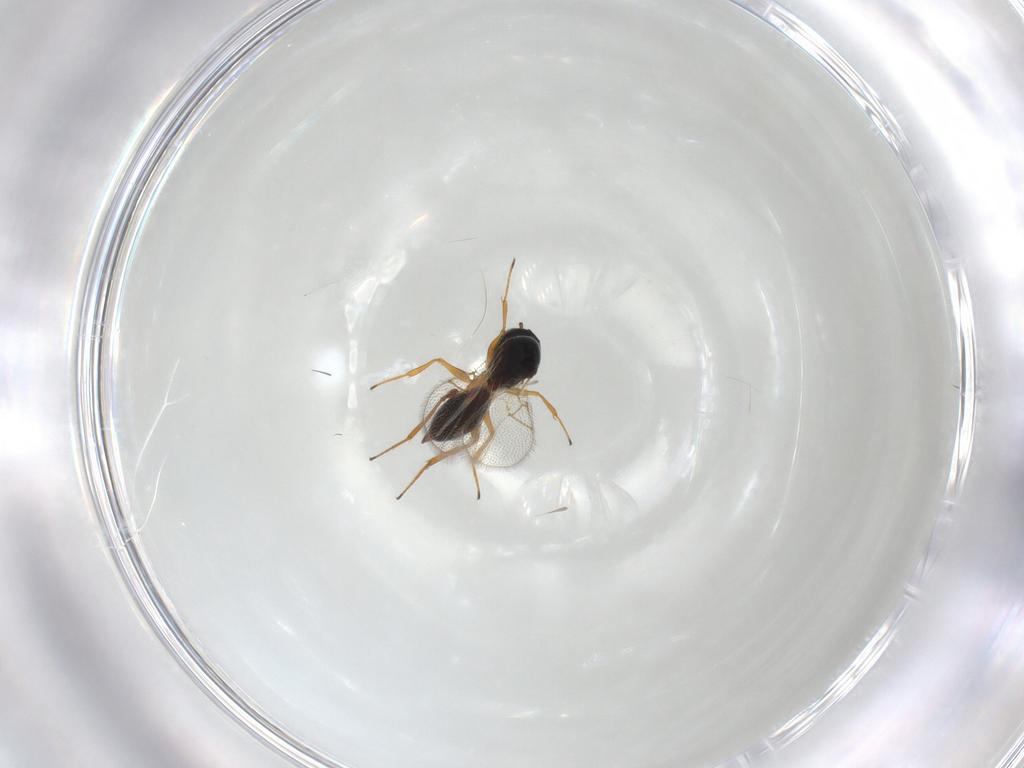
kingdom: Animalia
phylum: Arthropoda
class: Insecta
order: Hymenoptera
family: Figitidae
